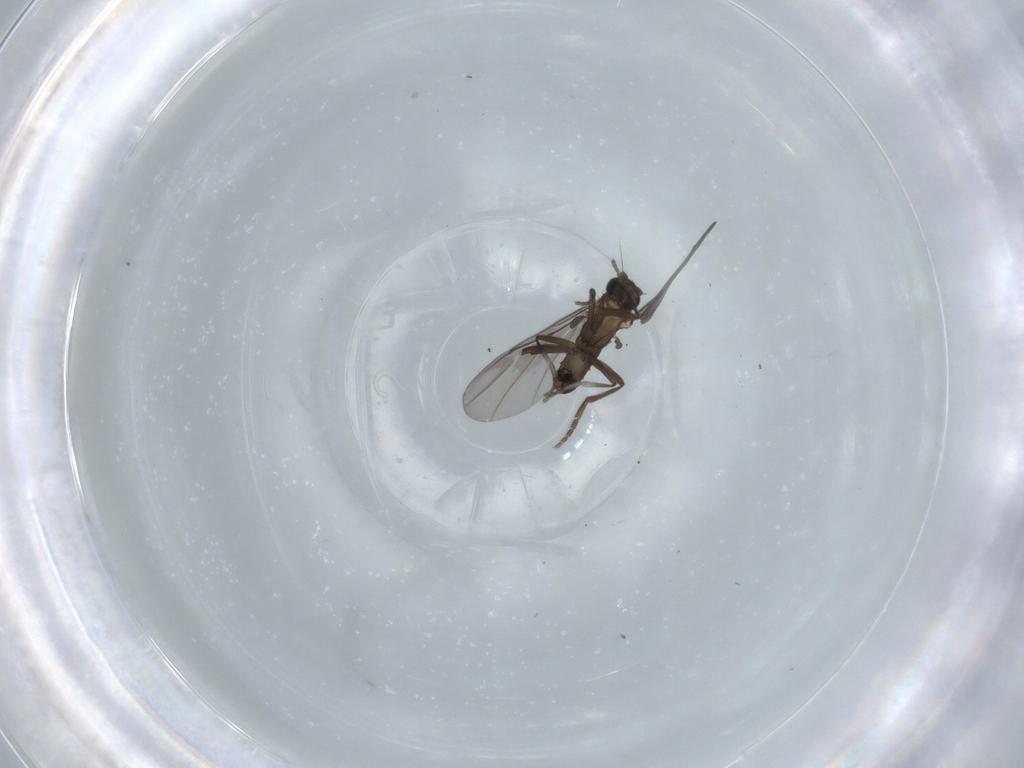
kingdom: Animalia
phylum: Arthropoda
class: Insecta
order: Diptera
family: Phoridae
